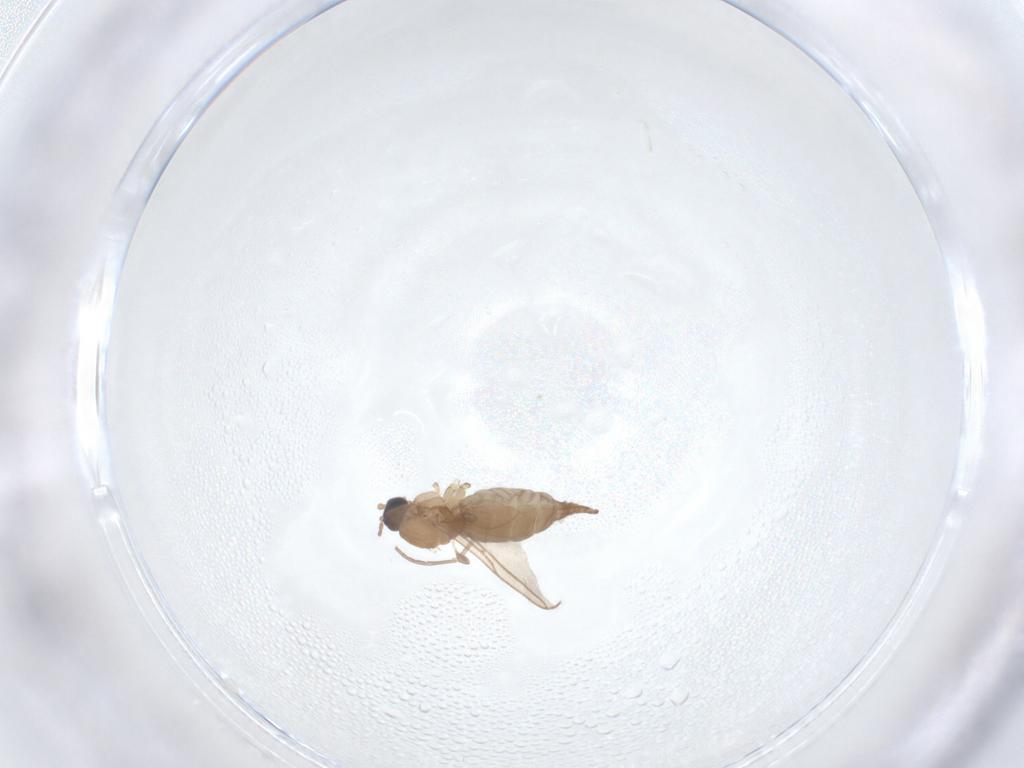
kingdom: Animalia
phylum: Arthropoda
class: Insecta
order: Diptera
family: Sciaridae
